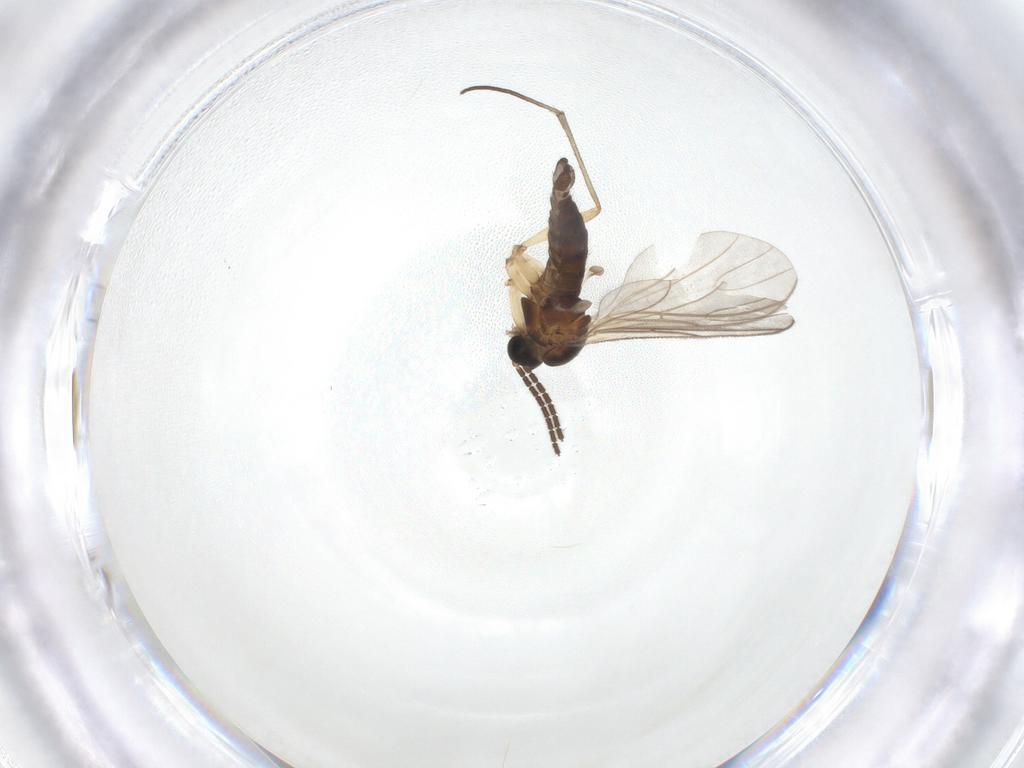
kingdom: Animalia
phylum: Arthropoda
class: Insecta
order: Diptera
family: Sciaridae
